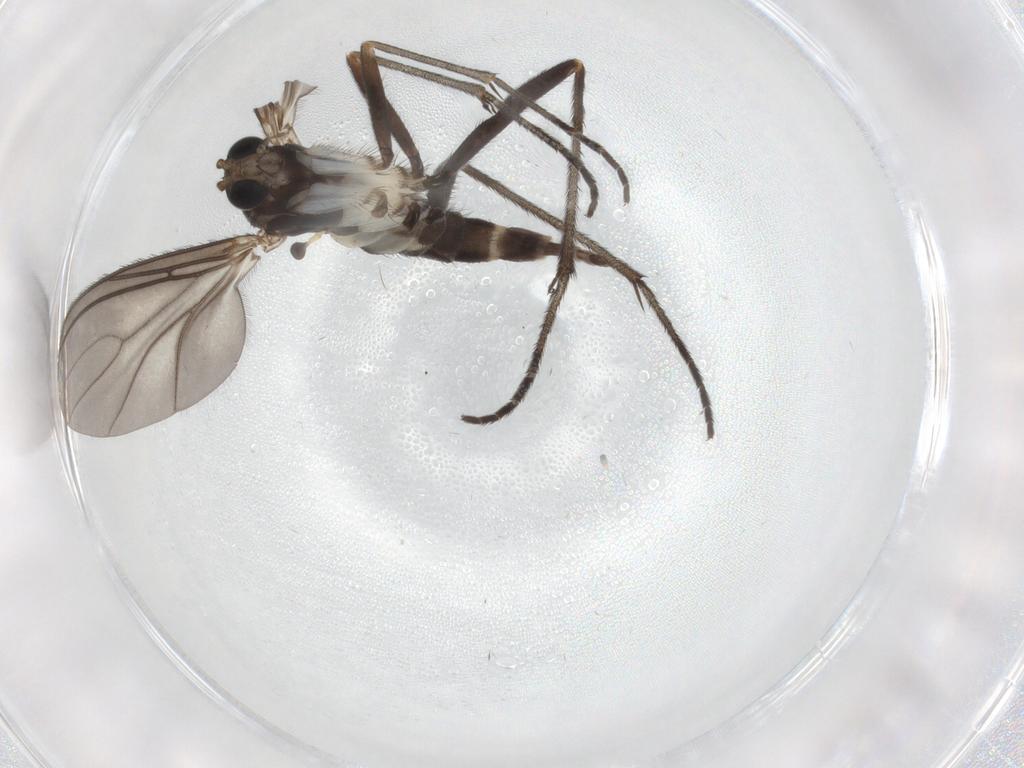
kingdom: Animalia
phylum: Arthropoda
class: Insecta
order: Diptera
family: Sciaridae
